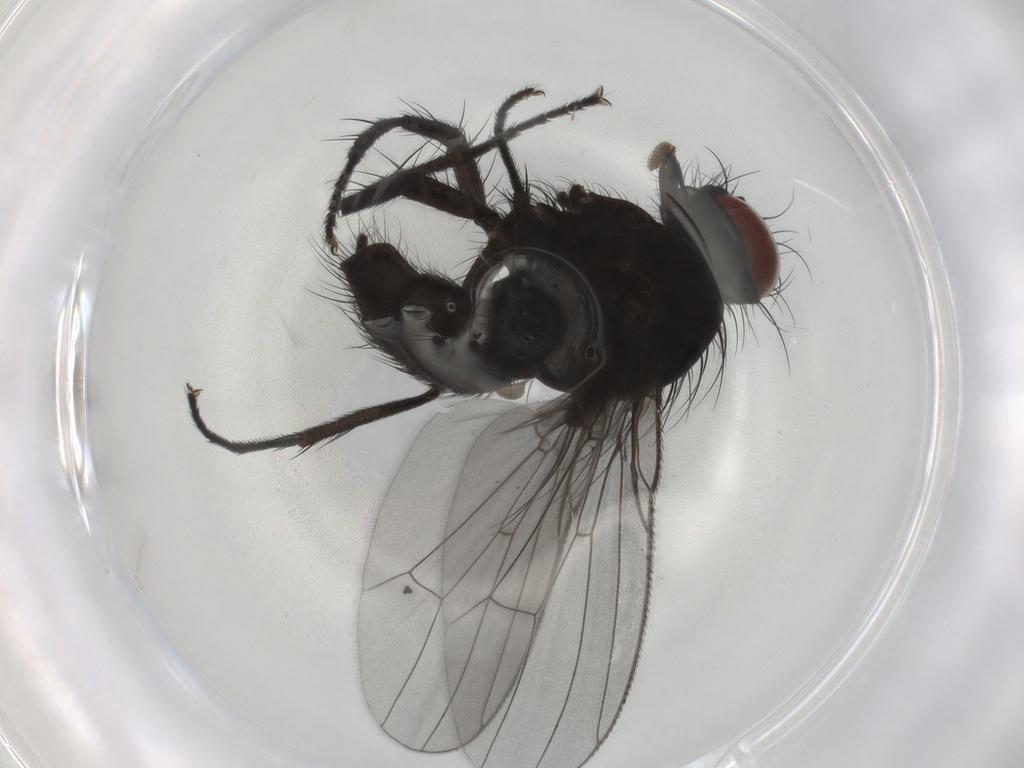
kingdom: Animalia
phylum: Arthropoda
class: Insecta
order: Diptera
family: Muscidae
